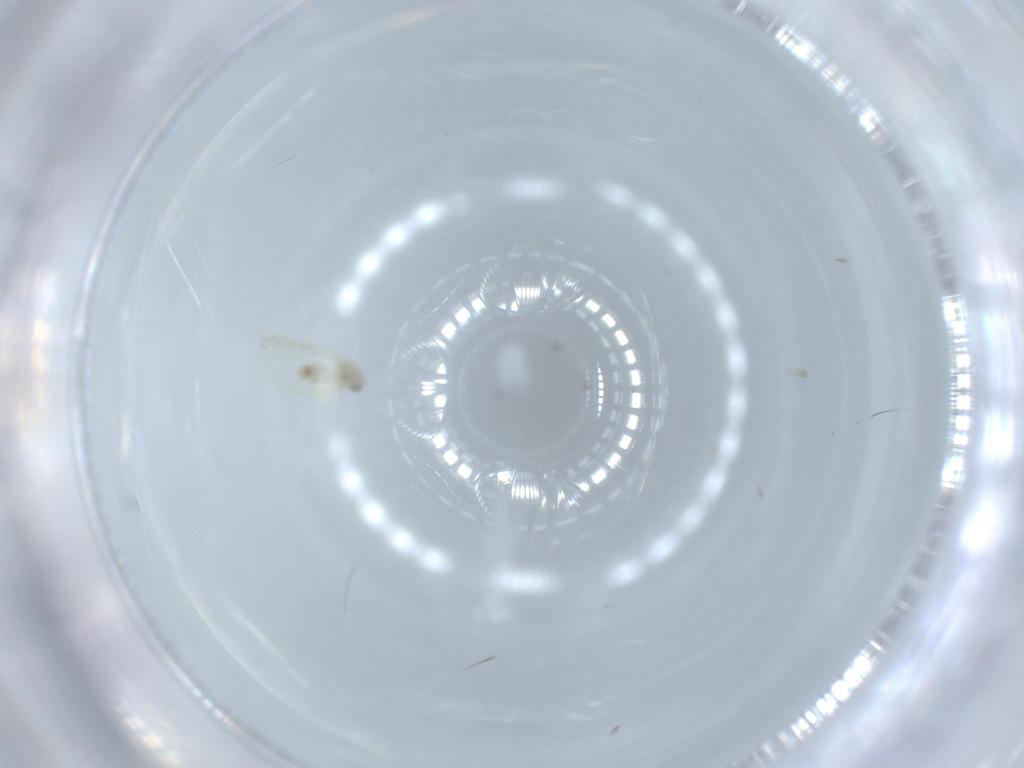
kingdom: Animalia
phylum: Arthropoda
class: Insecta
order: Hemiptera
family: Aleyrodidae
